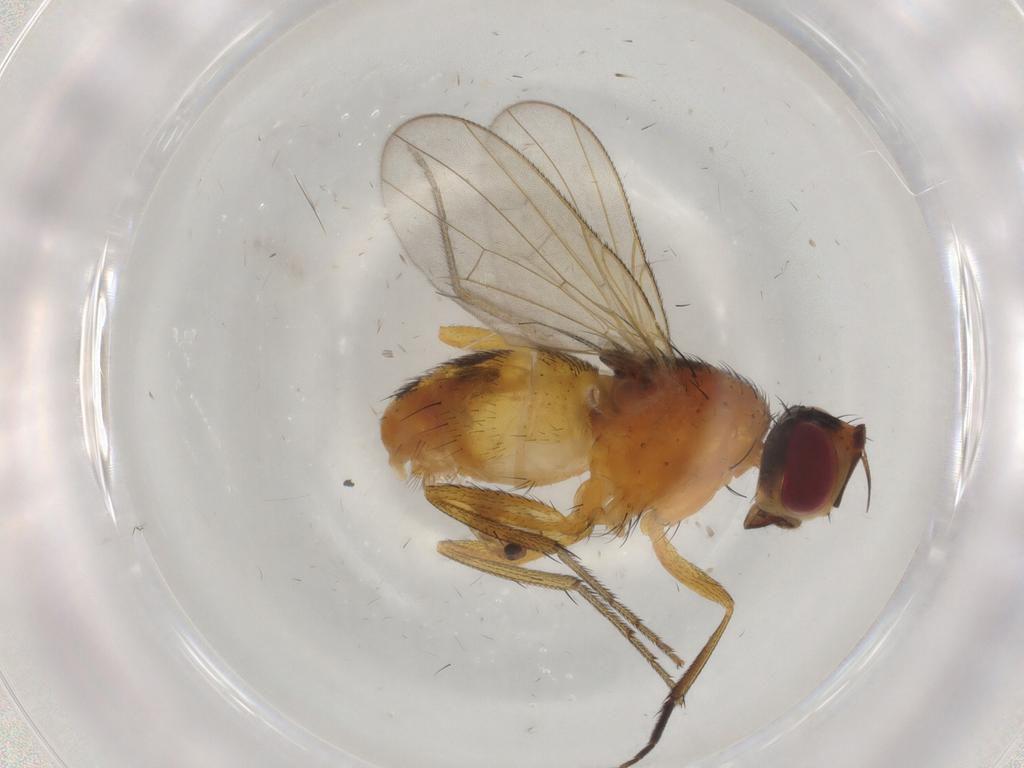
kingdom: Animalia
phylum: Arthropoda
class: Insecta
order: Diptera
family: Muscidae
